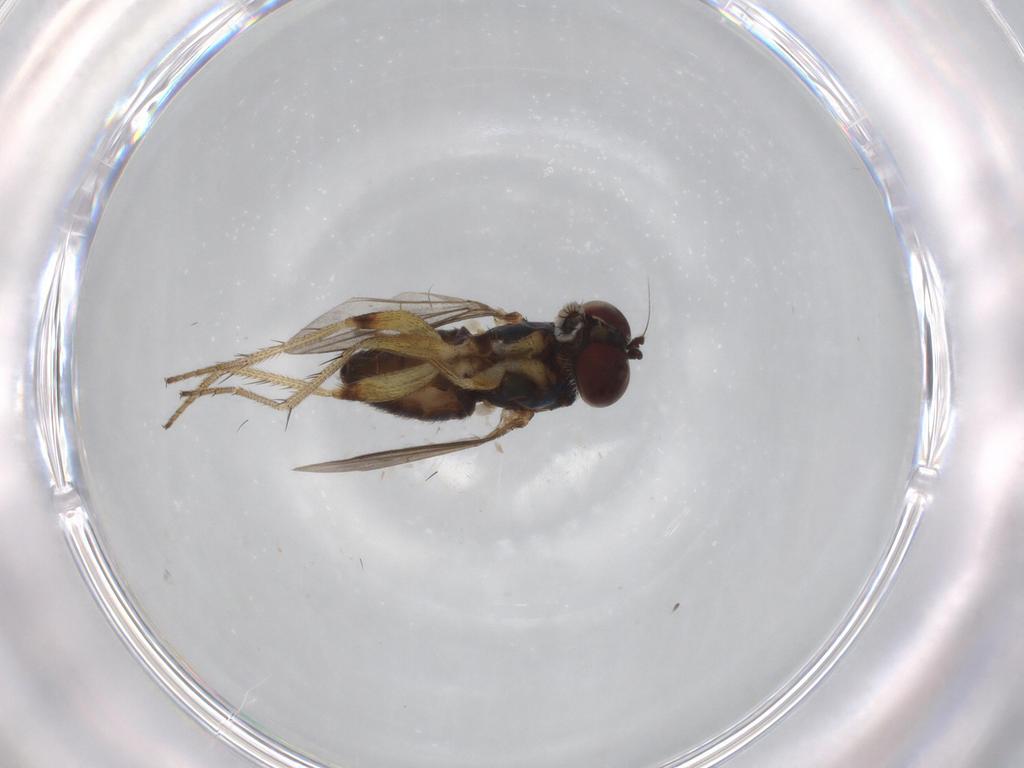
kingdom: Animalia
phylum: Arthropoda
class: Insecta
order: Diptera
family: Dolichopodidae
